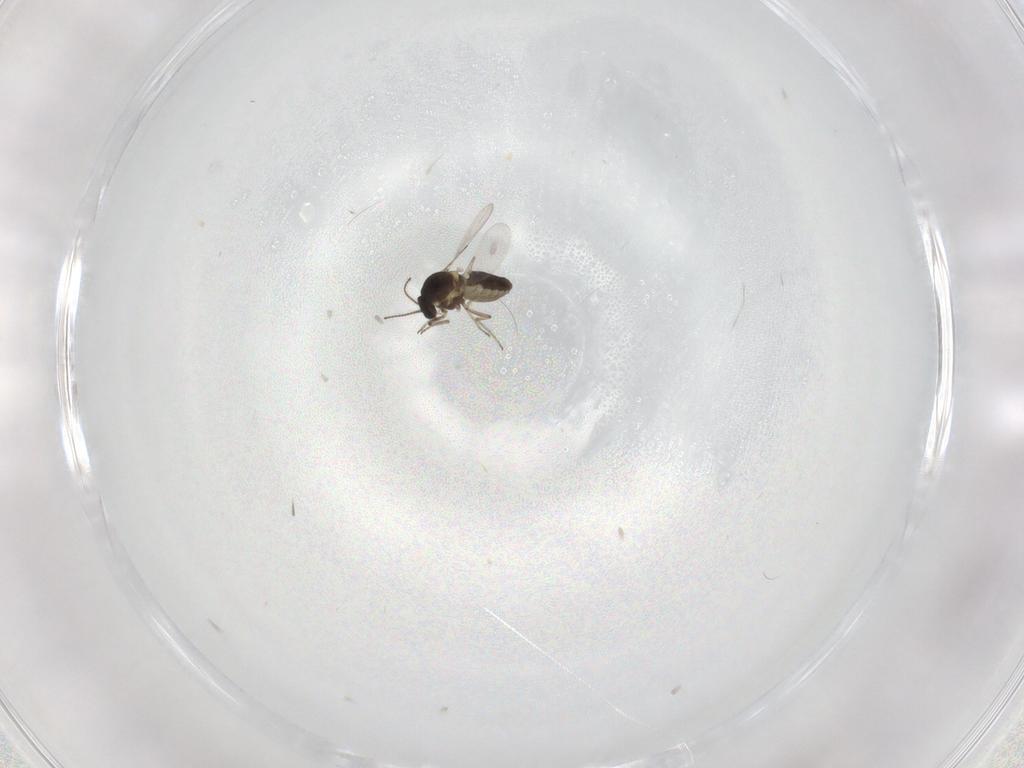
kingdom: Animalia
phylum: Arthropoda
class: Insecta
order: Diptera
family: Ceratopogonidae
